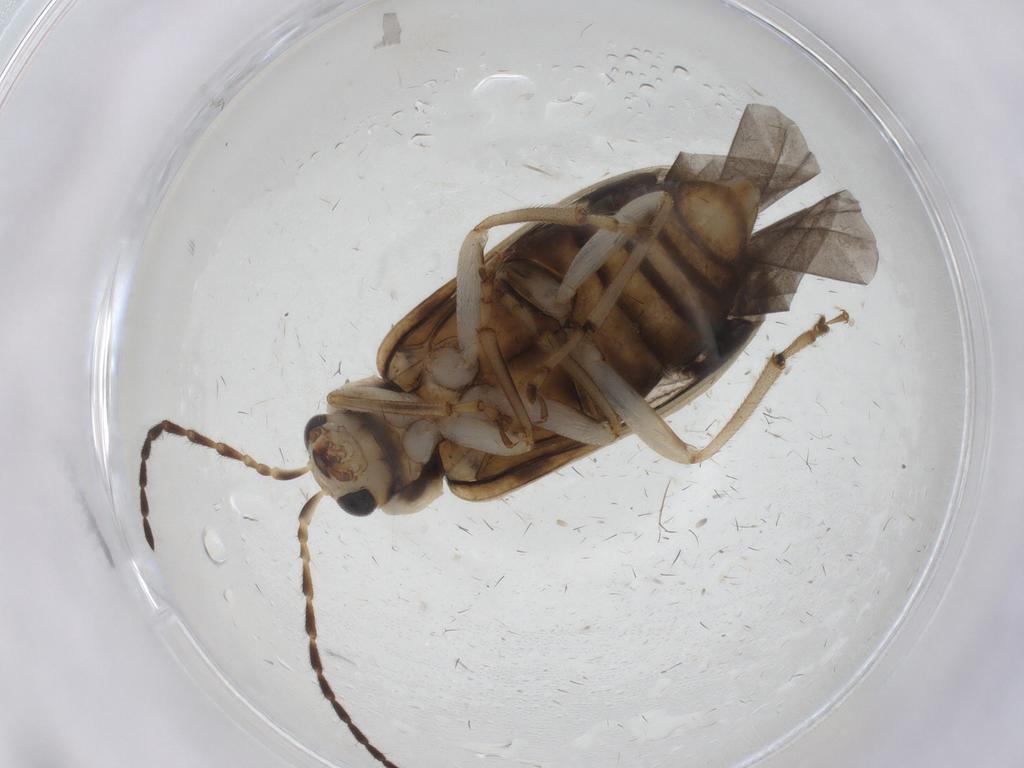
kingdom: Animalia
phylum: Arthropoda
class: Insecta
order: Coleoptera
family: Chrysomelidae
